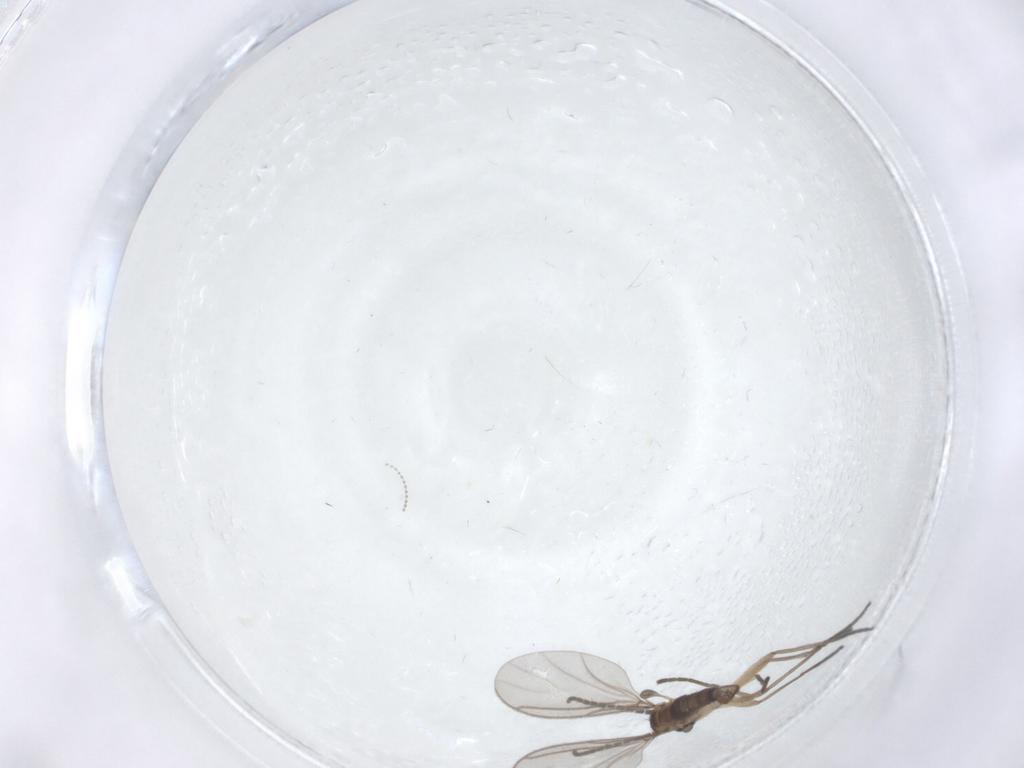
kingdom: Animalia
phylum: Arthropoda
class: Insecta
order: Diptera
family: Sciaridae
